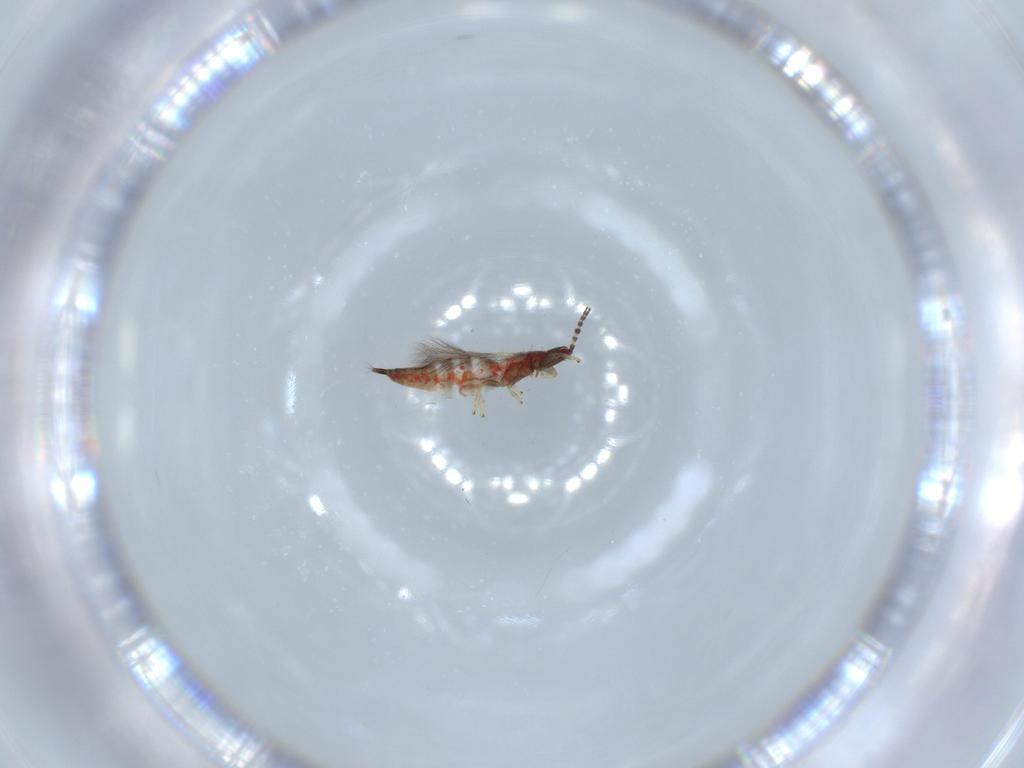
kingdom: Animalia
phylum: Arthropoda
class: Insecta
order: Thysanoptera
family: Phlaeothripidae
